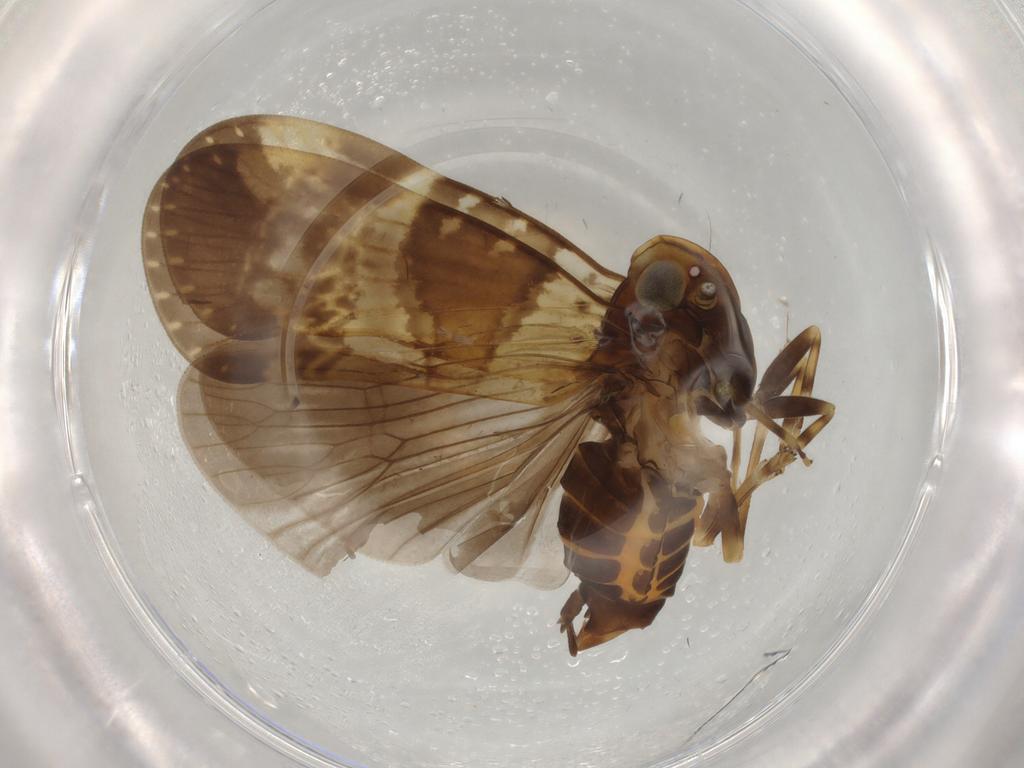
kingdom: Animalia
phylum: Arthropoda
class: Insecta
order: Hemiptera
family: Cixiidae
